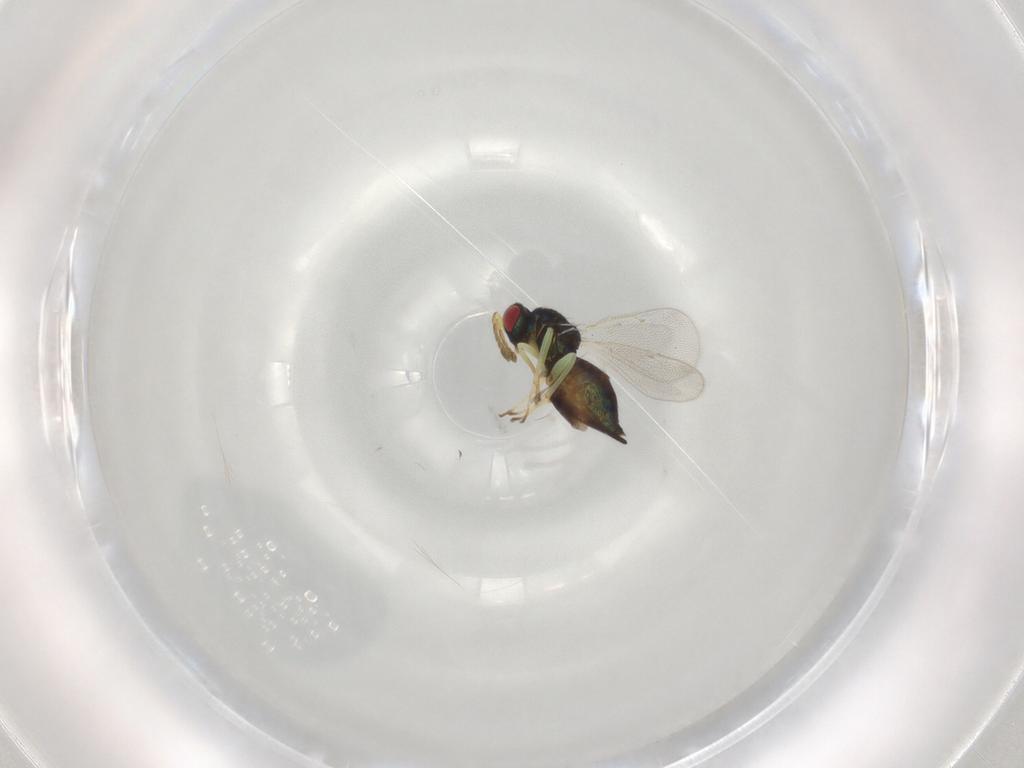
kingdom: Animalia
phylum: Arthropoda
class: Insecta
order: Hymenoptera
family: Eulophidae
